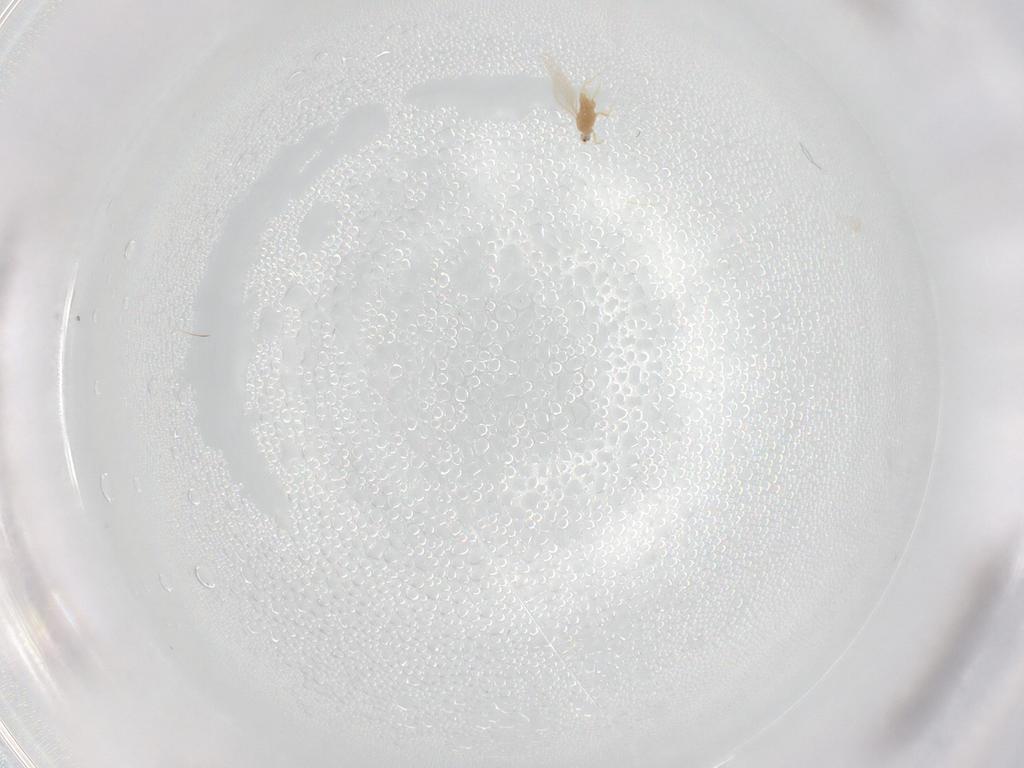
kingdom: Animalia
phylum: Arthropoda
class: Insecta
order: Hemiptera
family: Diaspididae
